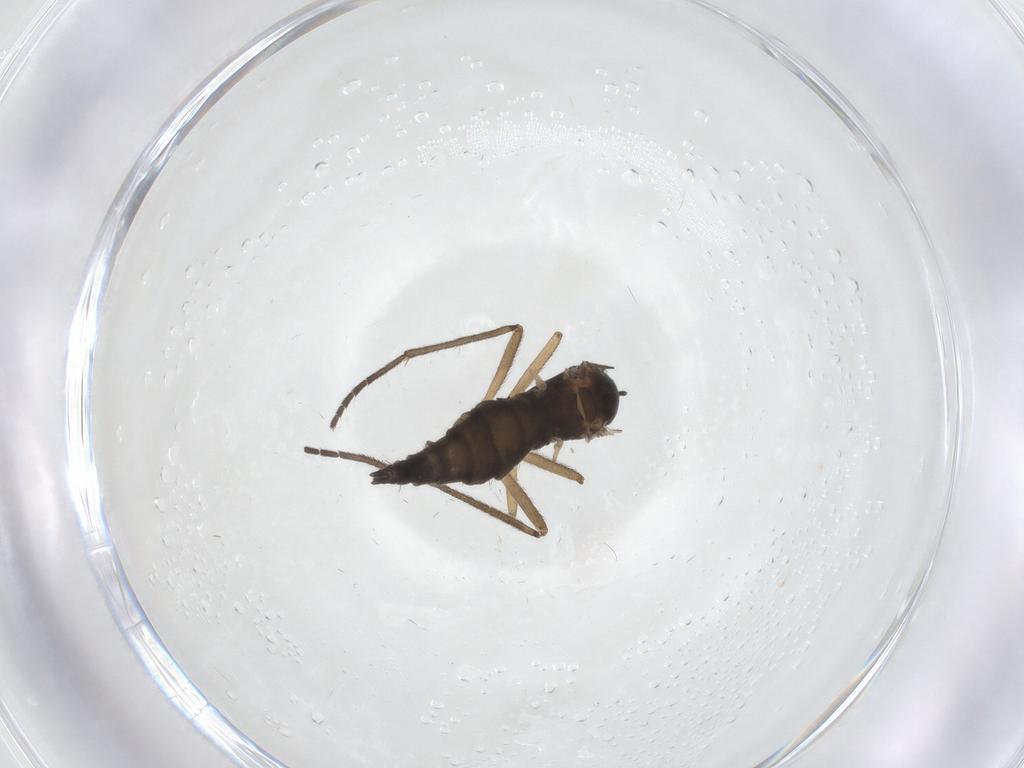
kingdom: Animalia
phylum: Arthropoda
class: Insecta
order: Diptera
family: Sciaridae
